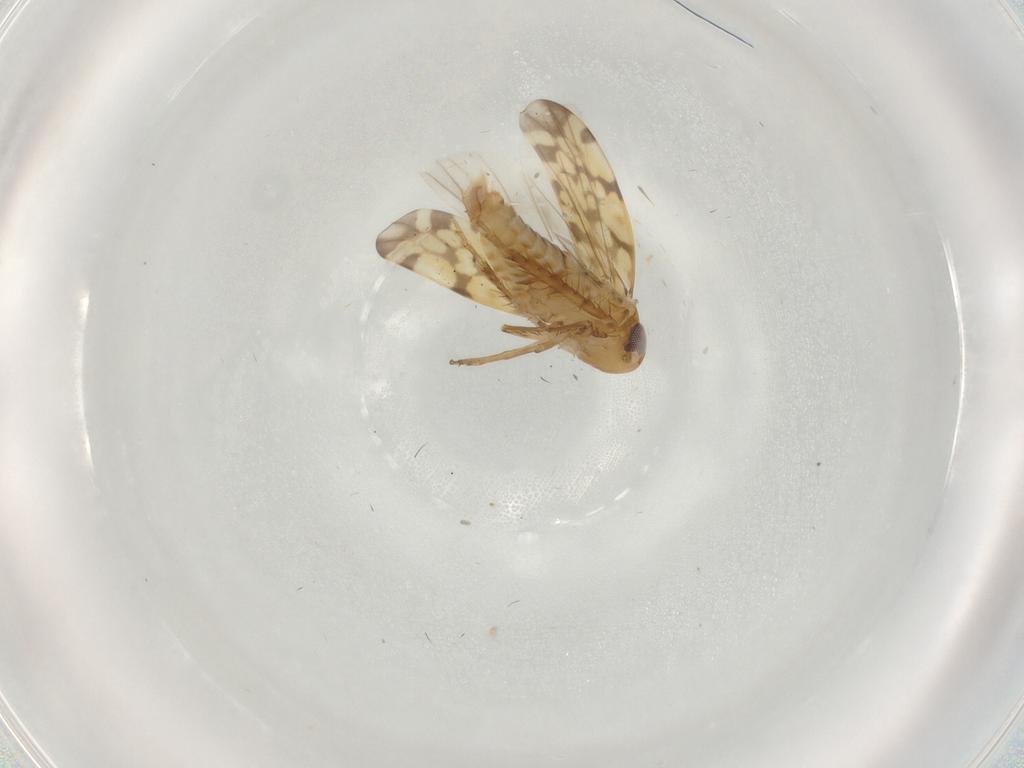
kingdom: Animalia
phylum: Arthropoda
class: Insecta
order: Hemiptera
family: Cicadellidae
